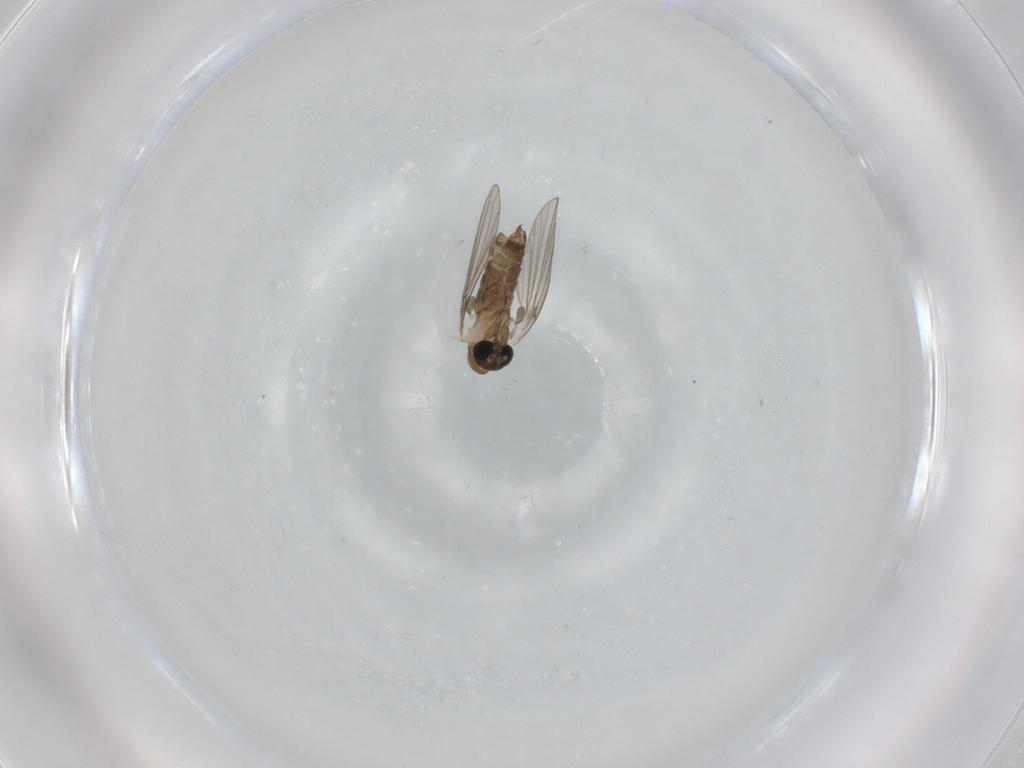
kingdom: Animalia
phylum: Arthropoda
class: Insecta
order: Diptera
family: Psychodidae
